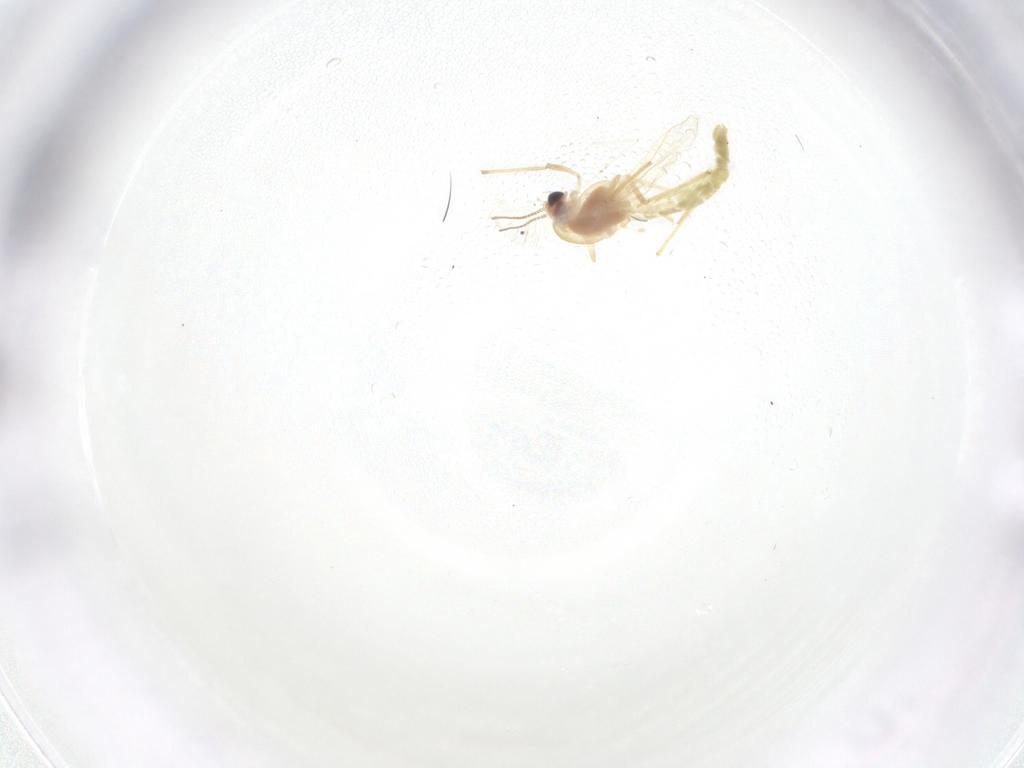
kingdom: Animalia
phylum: Arthropoda
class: Insecta
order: Diptera
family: Chironomidae
